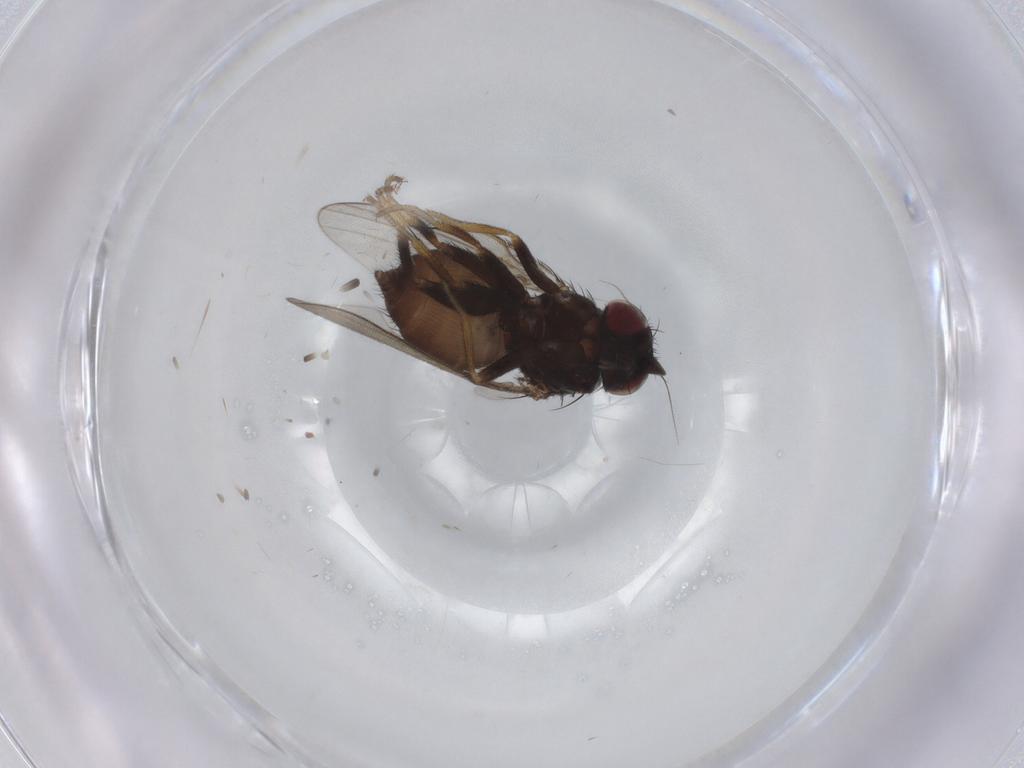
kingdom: Animalia
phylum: Arthropoda
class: Insecta
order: Diptera
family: Milichiidae
